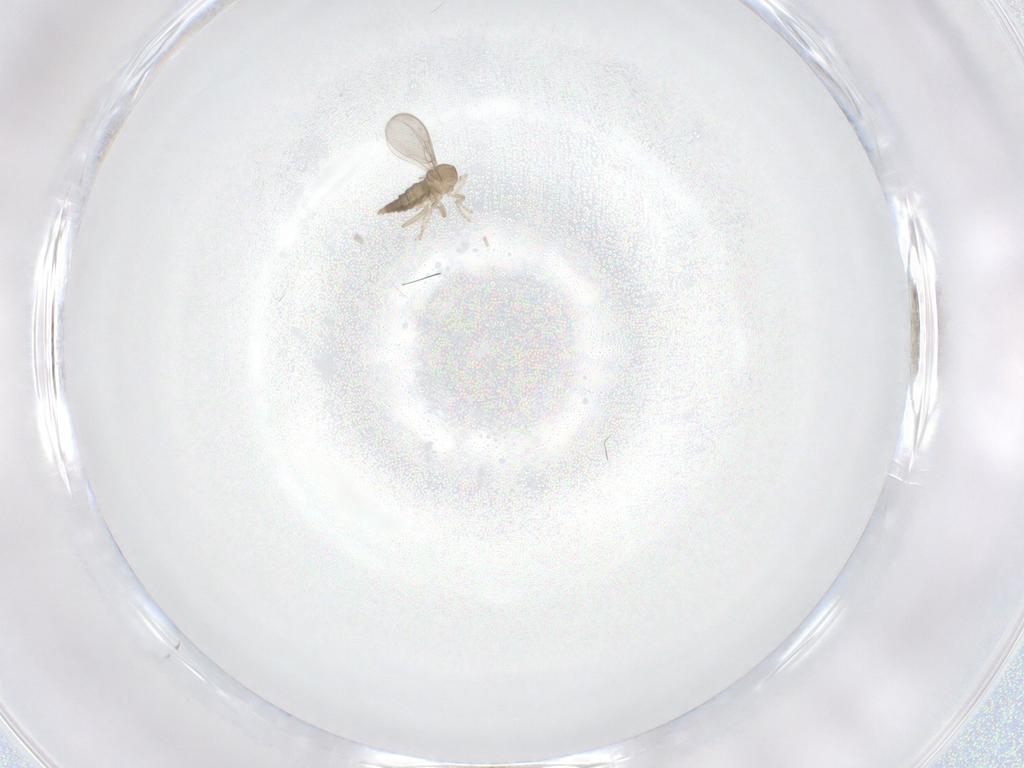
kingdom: Animalia
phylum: Arthropoda
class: Insecta
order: Diptera
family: Cecidomyiidae
